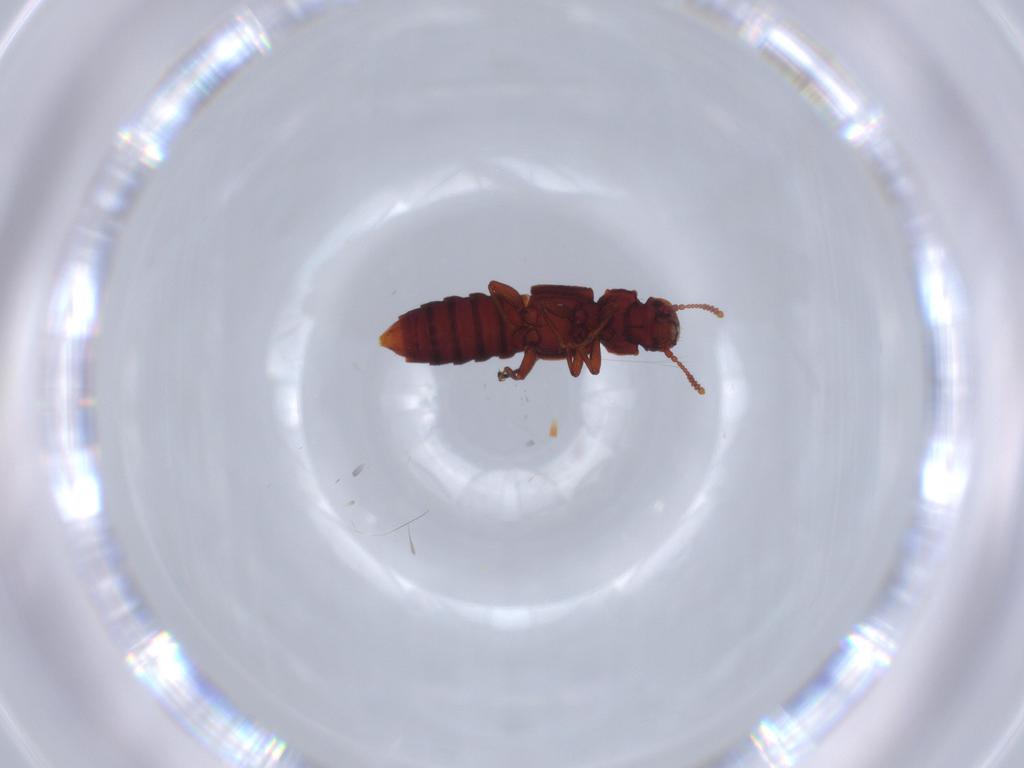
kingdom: Animalia
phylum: Arthropoda
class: Insecta
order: Coleoptera
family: Staphylinidae
